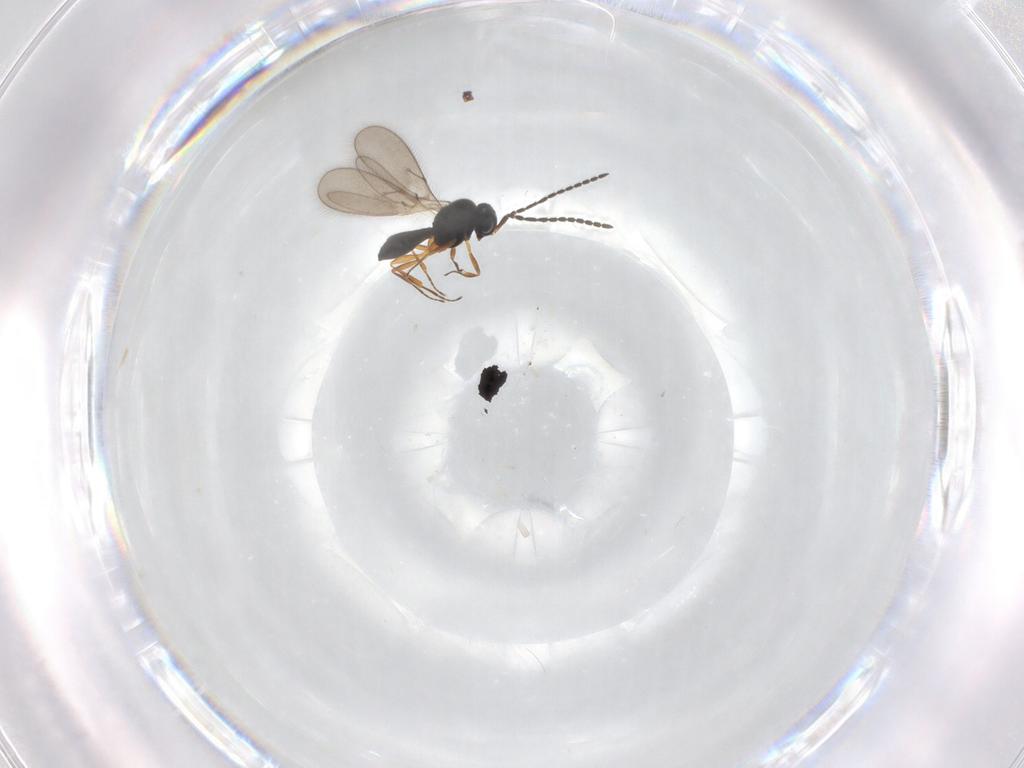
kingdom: Animalia
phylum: Arthropoda
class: Insecta
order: Hymenoptera
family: Scelionidae
